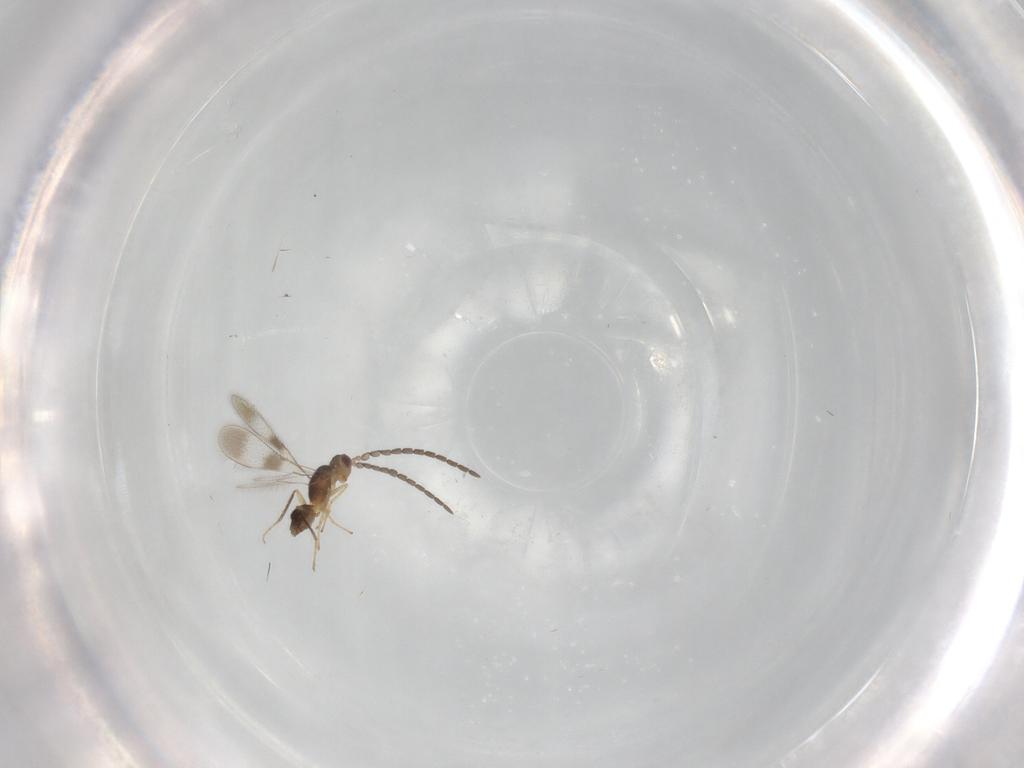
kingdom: Animalia
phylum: Arthropoda
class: Insecta
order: Hymenoptera
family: Mymaridae
